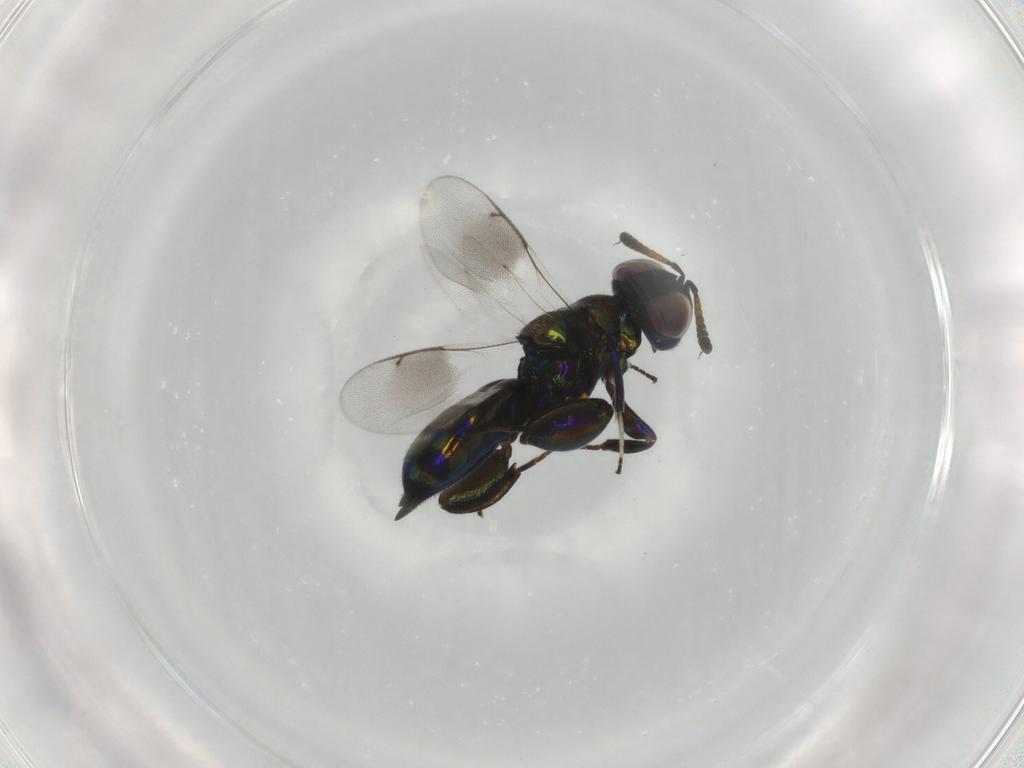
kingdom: Animalia
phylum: Arthropoda
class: Insecta
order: Hymenoptera
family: Pteromalidae
